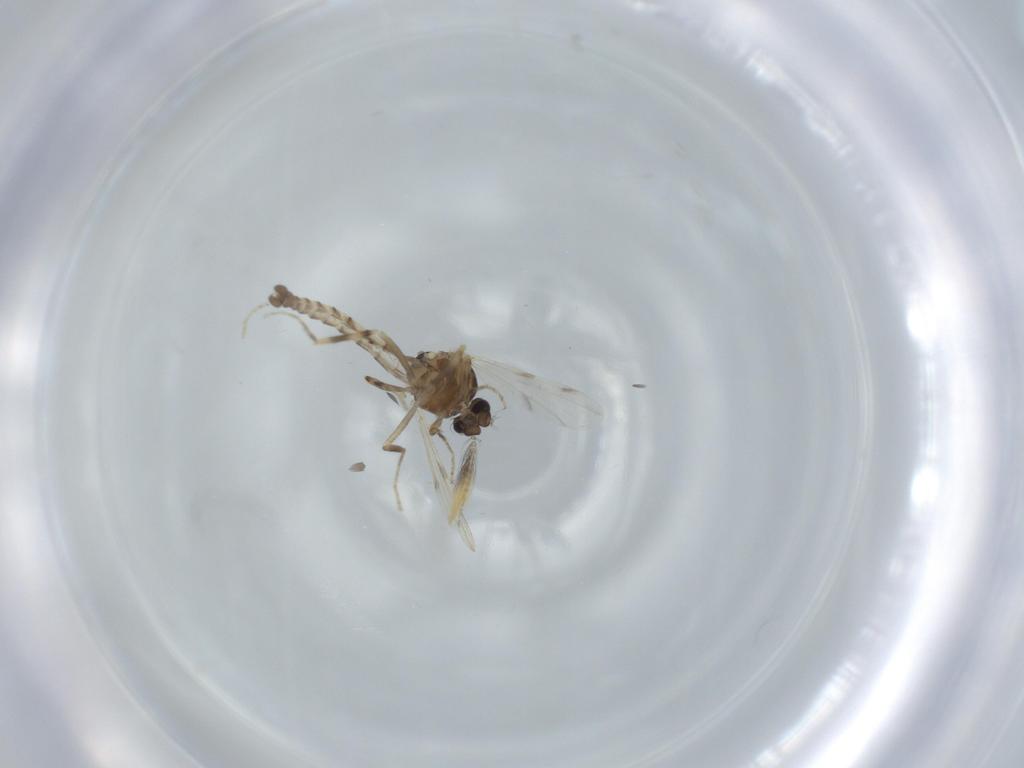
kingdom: Animalia
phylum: Arthropoda
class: Insecta
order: Diptera
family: Ceratopogonidae
